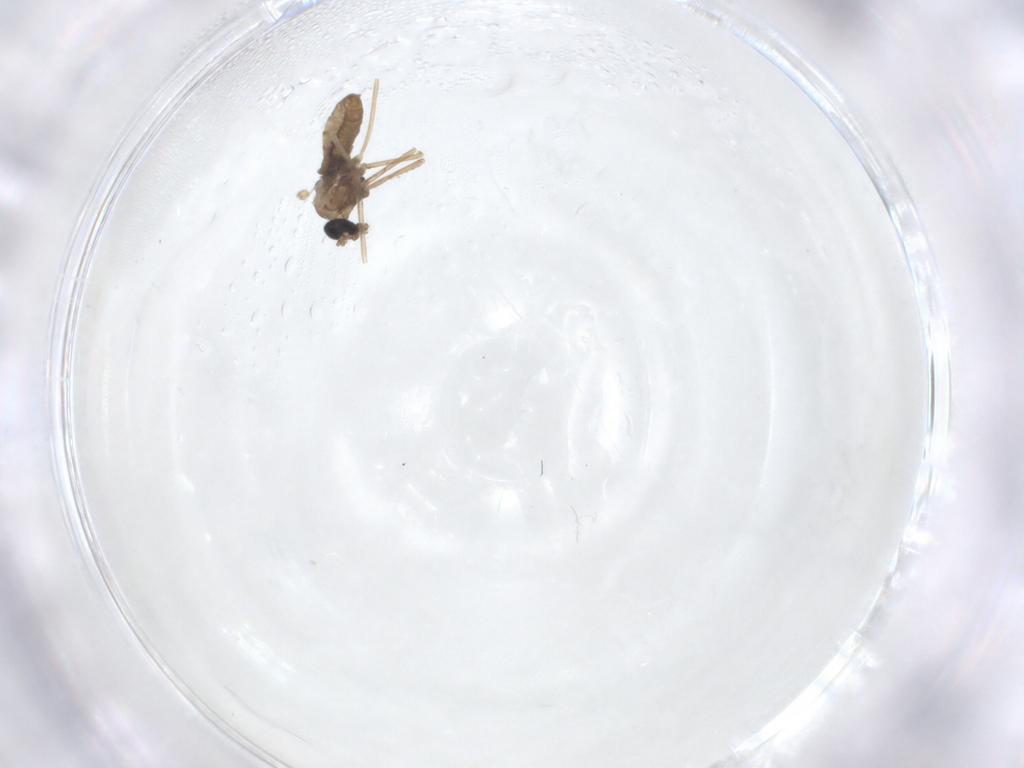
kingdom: Animalia
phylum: Arthropoda
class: Insecta
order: Diptera
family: Cecidomyiidae
